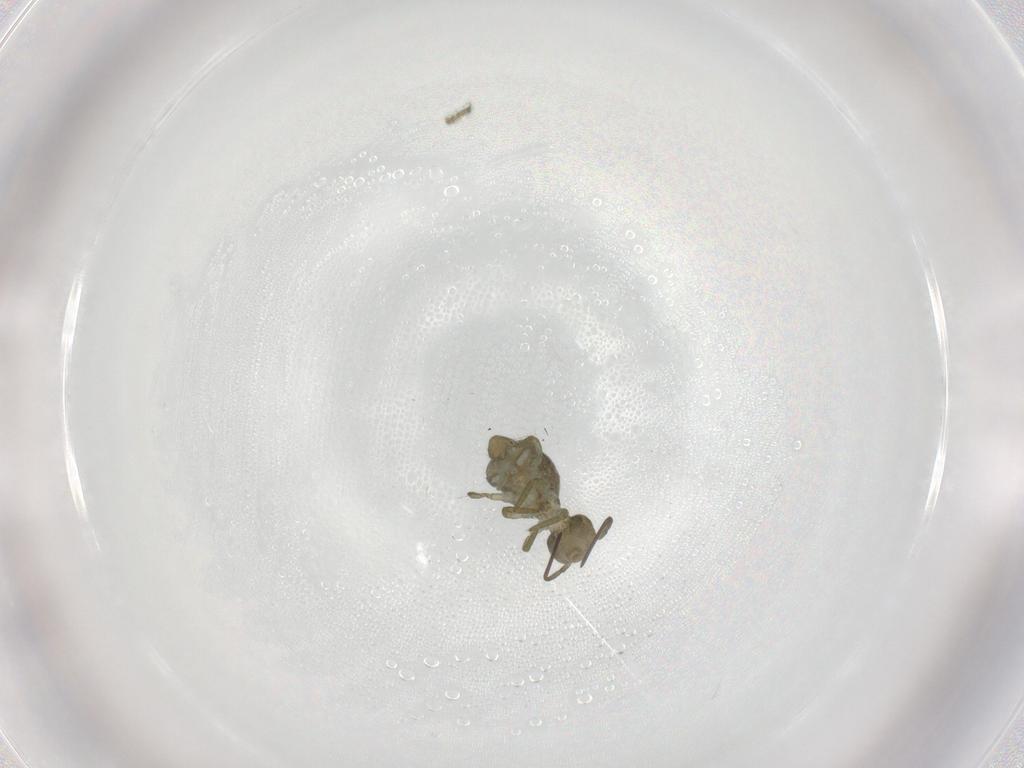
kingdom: Animalia
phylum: Arthropoda
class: Collembola
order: Symphypleona
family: Sminthuridae
